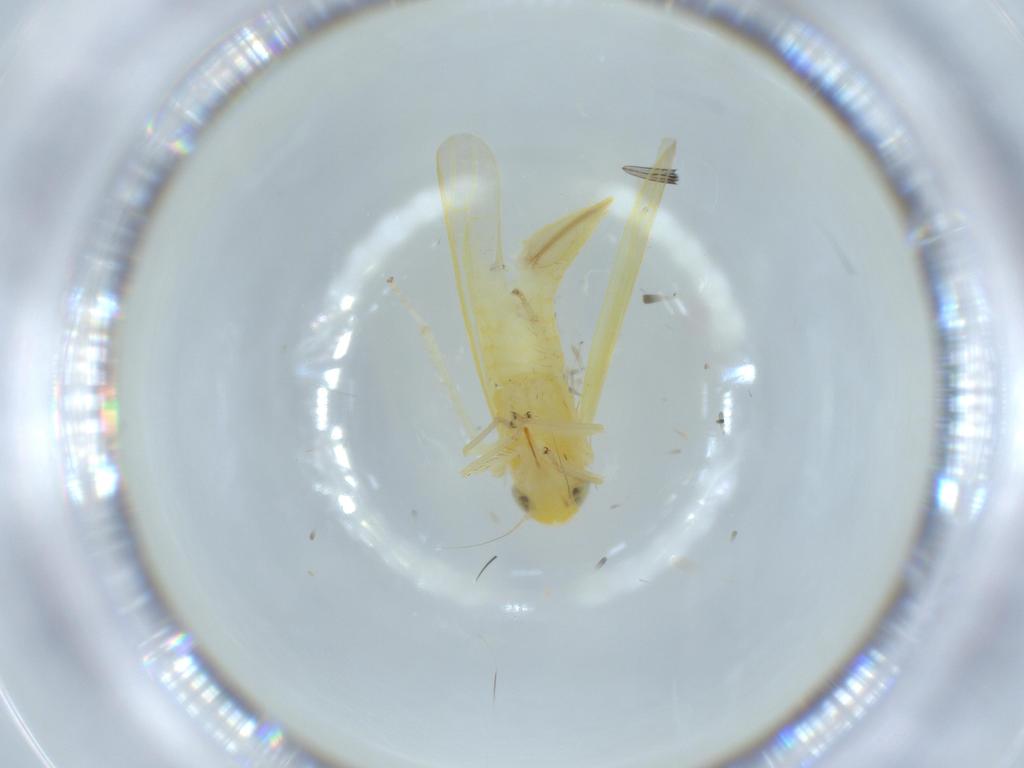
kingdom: Animalia
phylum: Arthropoda
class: Insecta
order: Hemiptera
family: Cicadellidae
